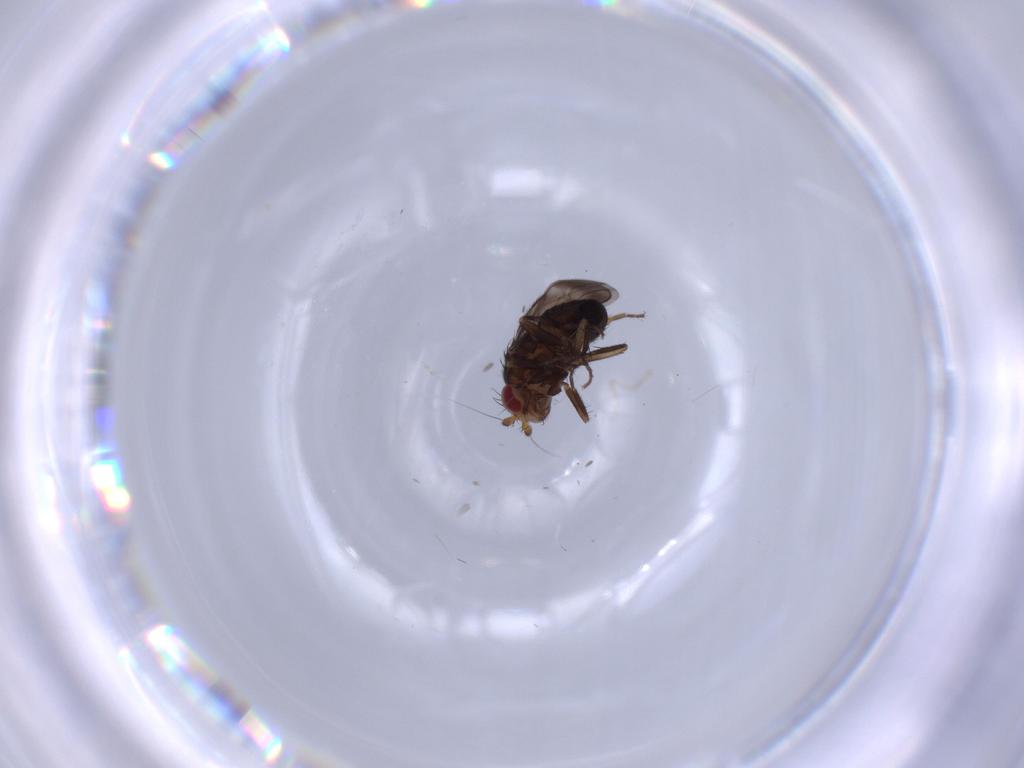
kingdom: Animalia
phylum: Arthropoda
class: Insecta
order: Diptera
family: Sphaeroceridae
